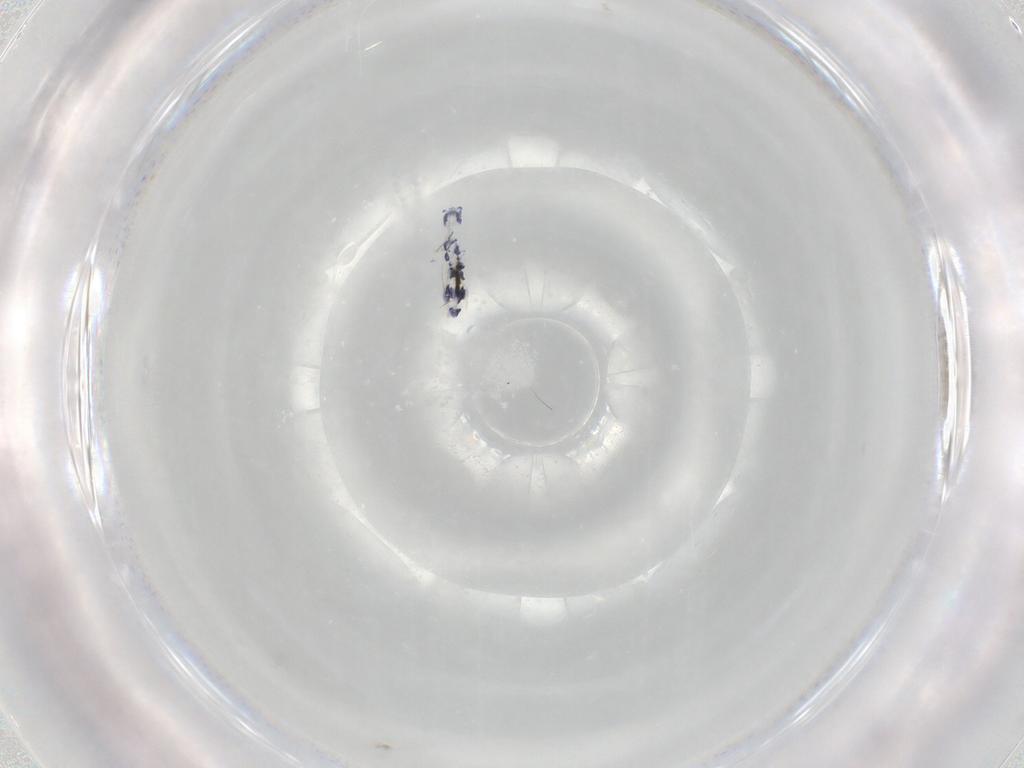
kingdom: Animalia
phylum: Arthropoda
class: Collembola
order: Entomobryomorpha
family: Entomobryidae
